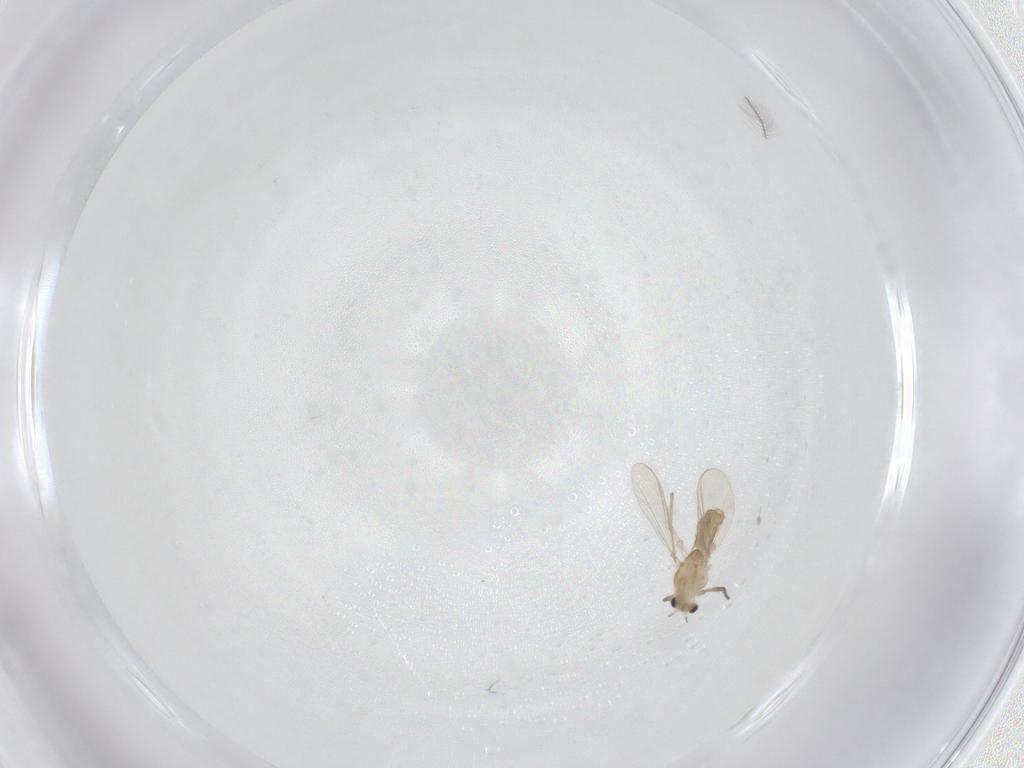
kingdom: Animalia
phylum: Arthropoda
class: Insecta
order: Diptera
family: Chironomidae
